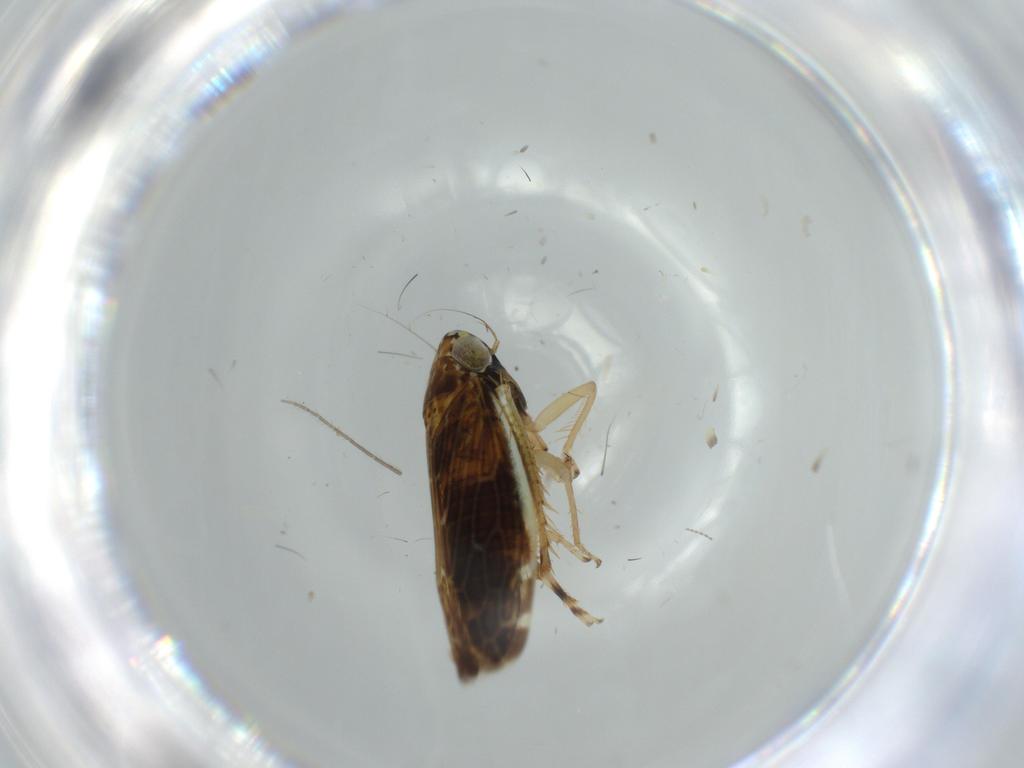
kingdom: Animalia
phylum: Arthropoda
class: Insecta
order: Hemiptera
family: Cicadellidae
